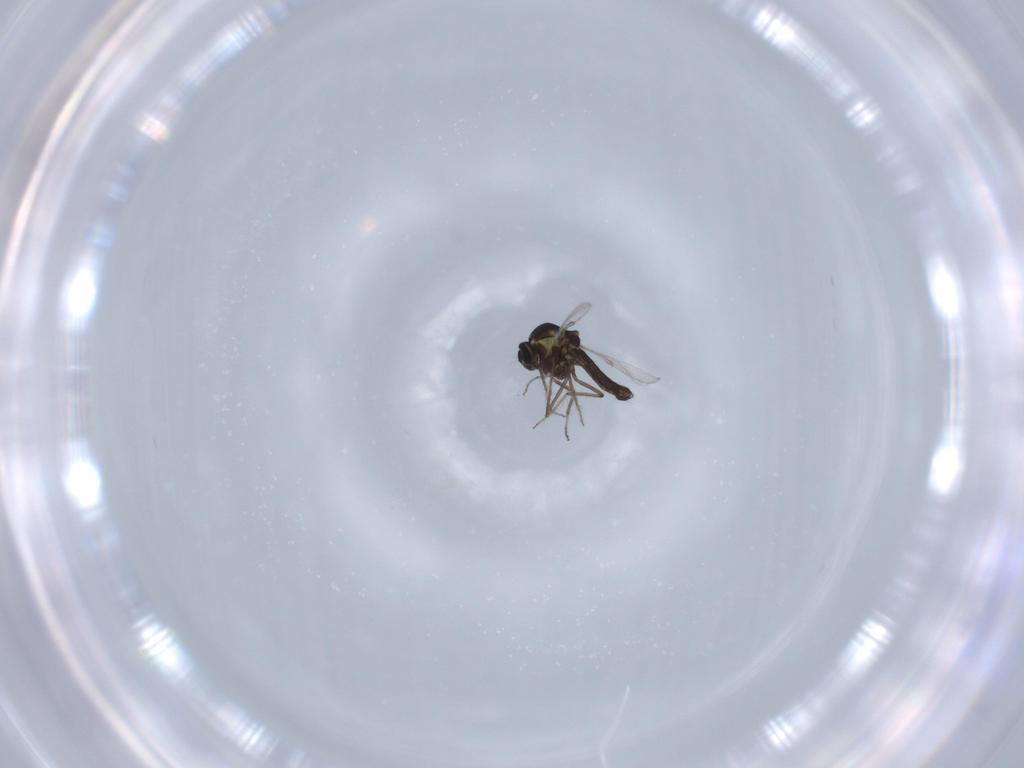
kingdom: Animalia
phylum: Arthropoda
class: Insecta
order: Diptera
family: Ceratopogonidae
